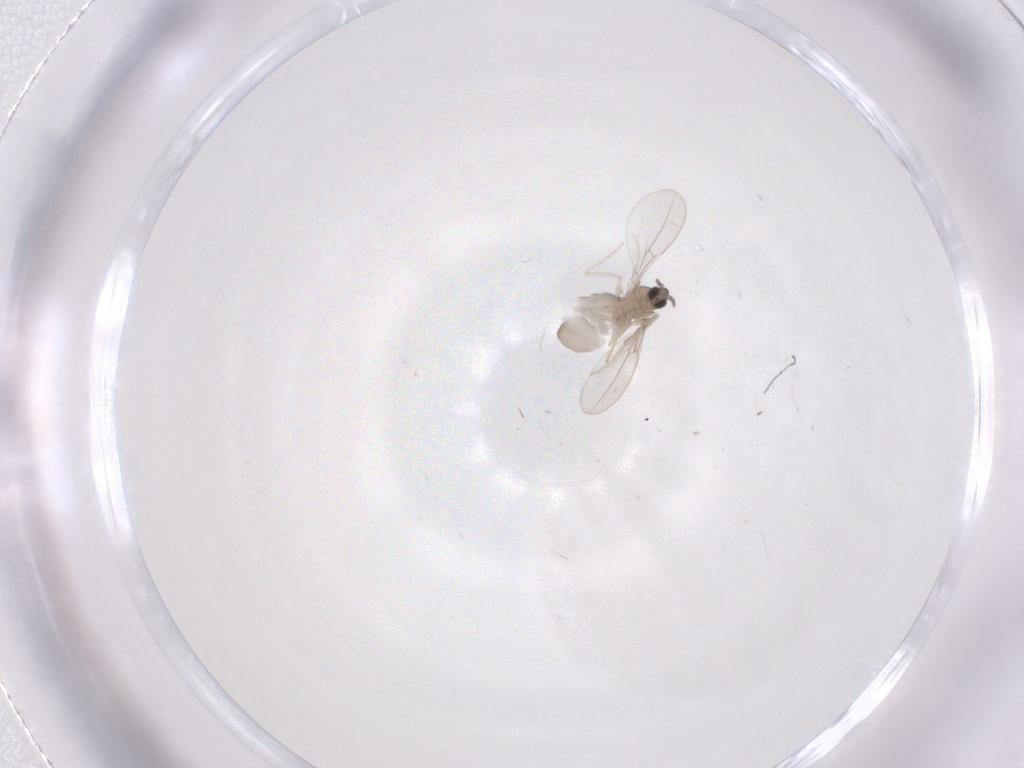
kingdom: Animalia
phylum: Arthropoda
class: Insecta
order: Diptera
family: Cecidomyiidae
